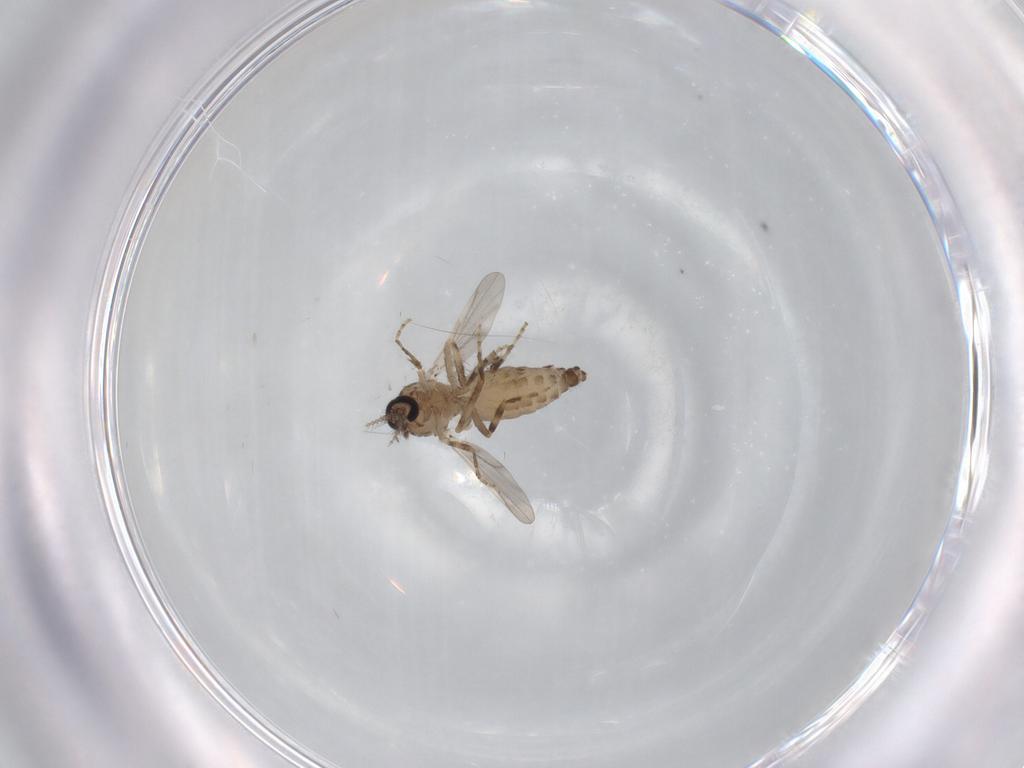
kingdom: Animalia
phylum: Arthropoda
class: Insecta
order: Diptera
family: Ceratopogonidae
